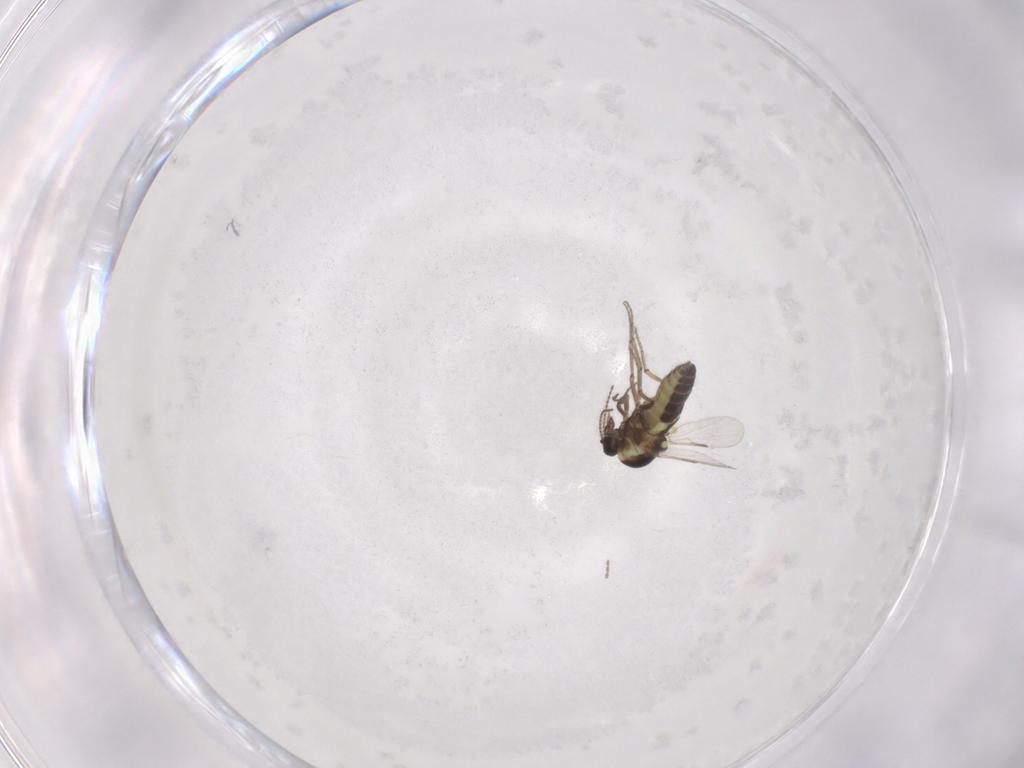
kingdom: Animalia
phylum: Arthropoda
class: Insecta
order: Diptera
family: Ceratopogonidae
